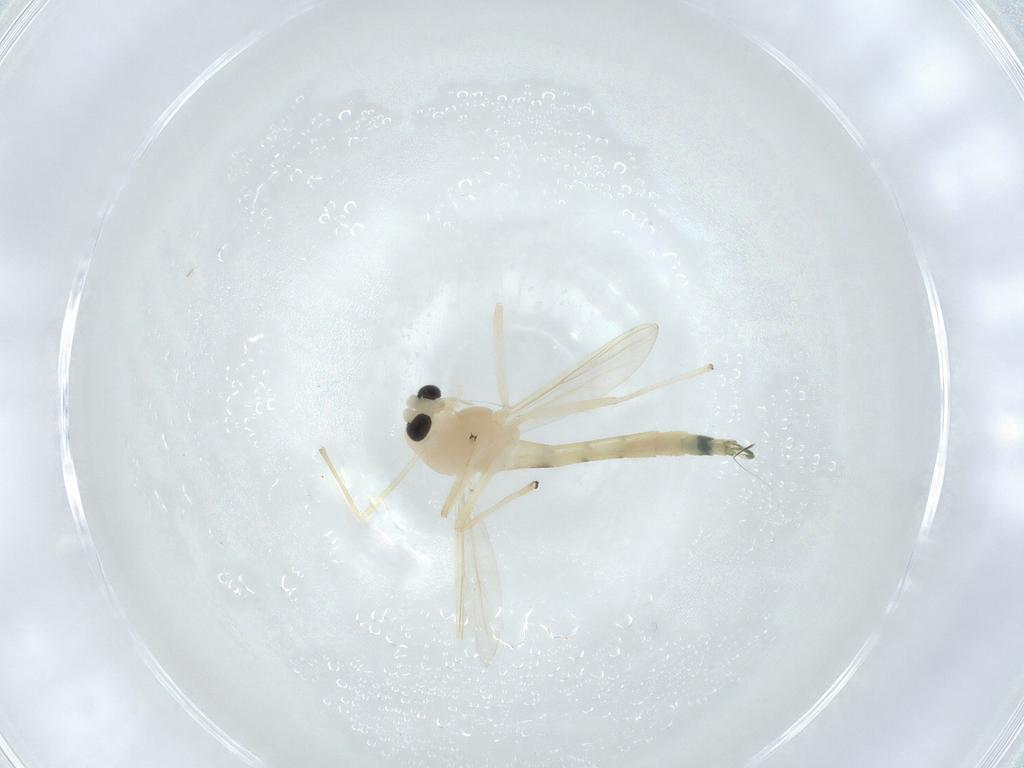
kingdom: Animalia
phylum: Arthropoda
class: Insecta
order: Diptera
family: Chironomidae
